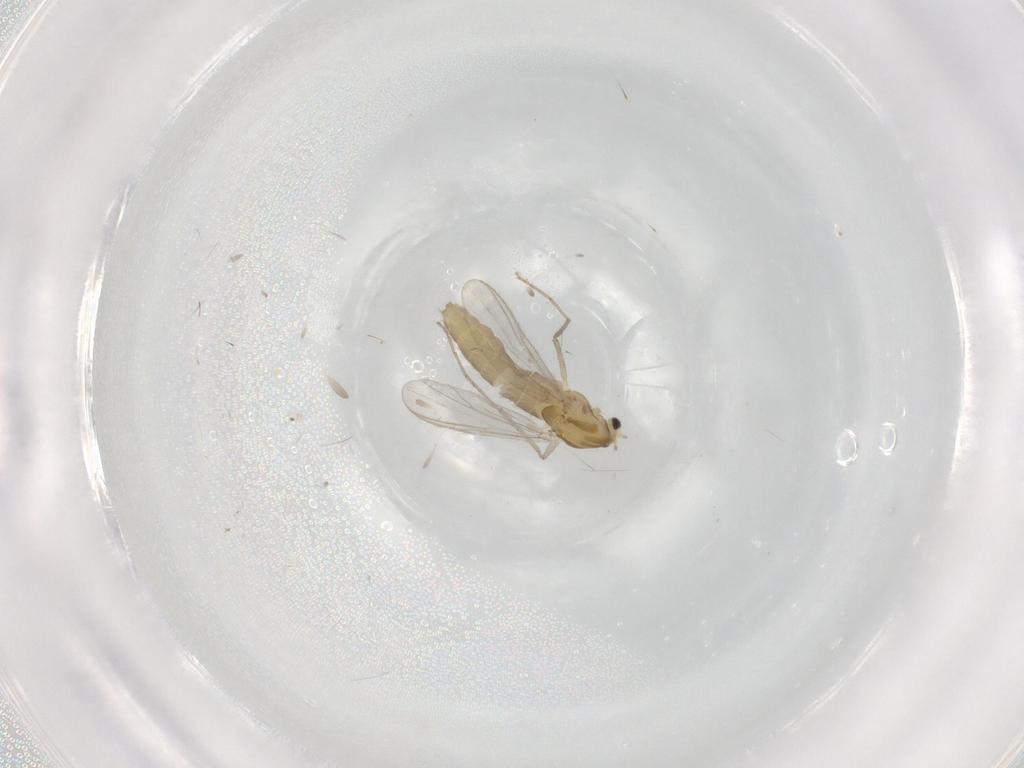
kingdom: Animalia
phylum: Arthropoda
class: Insecta
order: Diptera
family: Chironomidae
